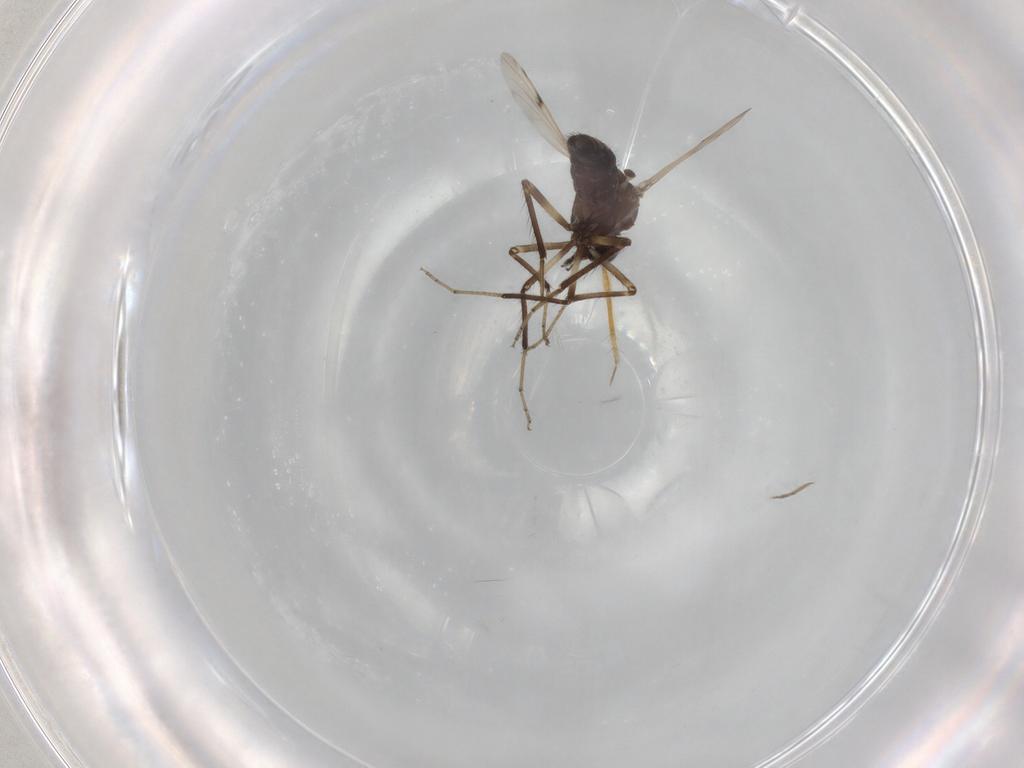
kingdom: Animalia
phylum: Arthropoda
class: Insecta
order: Diptera
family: Ceratopogonidae
